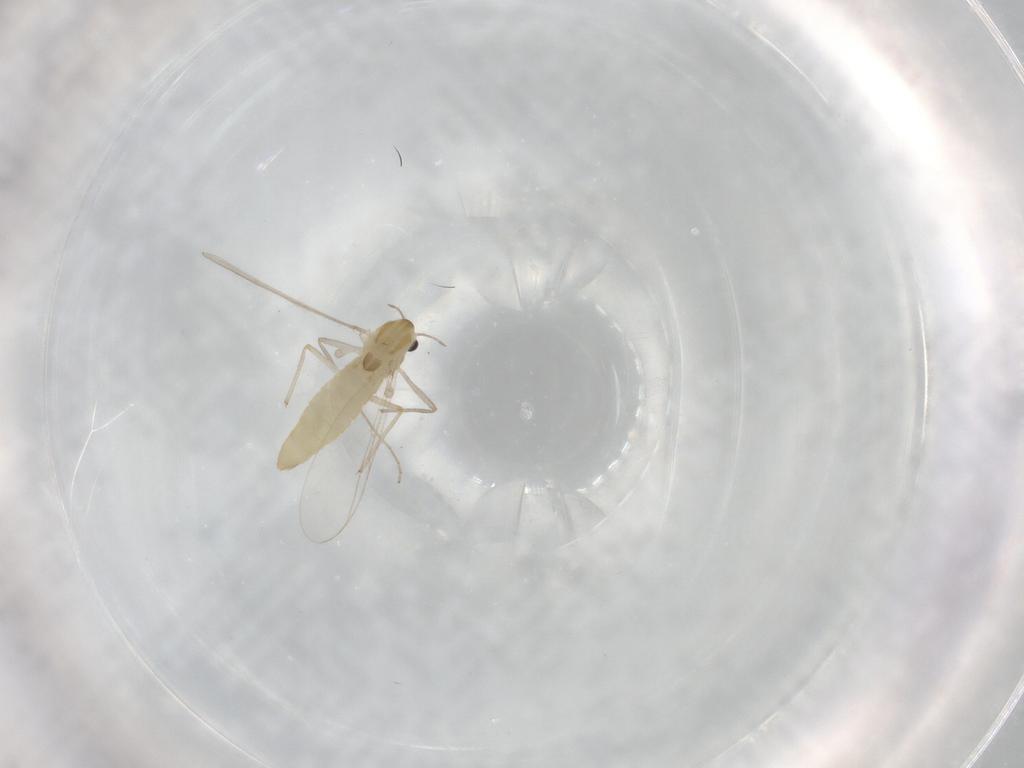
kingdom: Animalia
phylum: Arthropoda
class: Insecta
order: Diptera
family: Chironomidae
